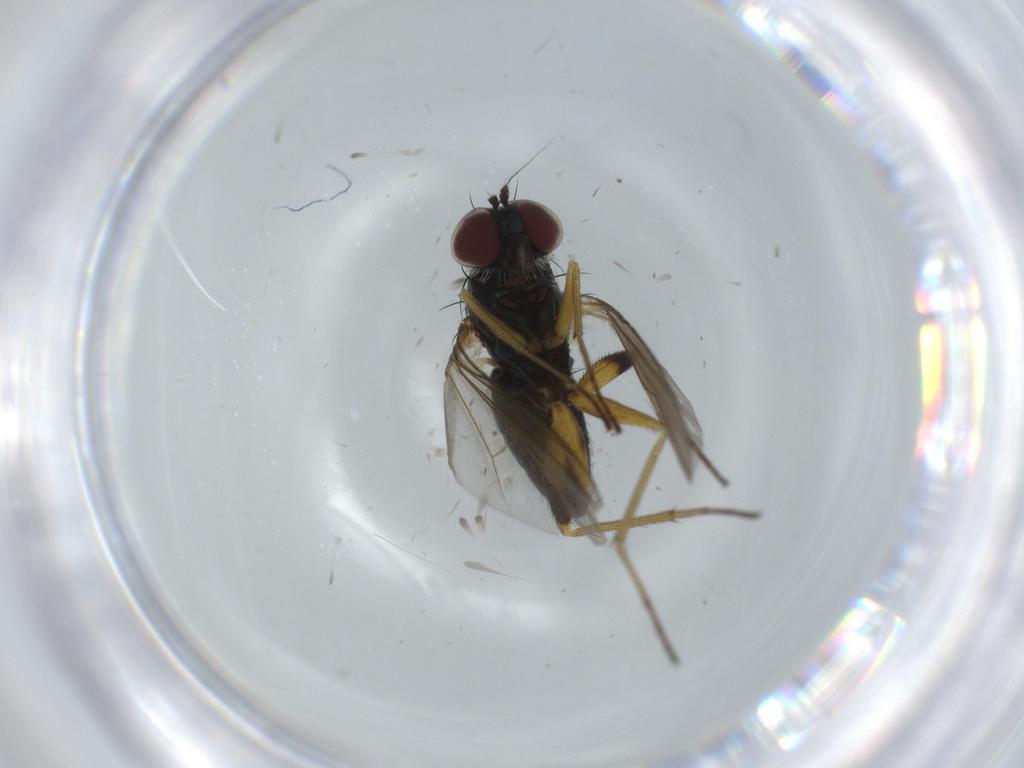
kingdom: Animalia
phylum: Arthropoda
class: Insecta
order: Diptera
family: Dolichopodidae
